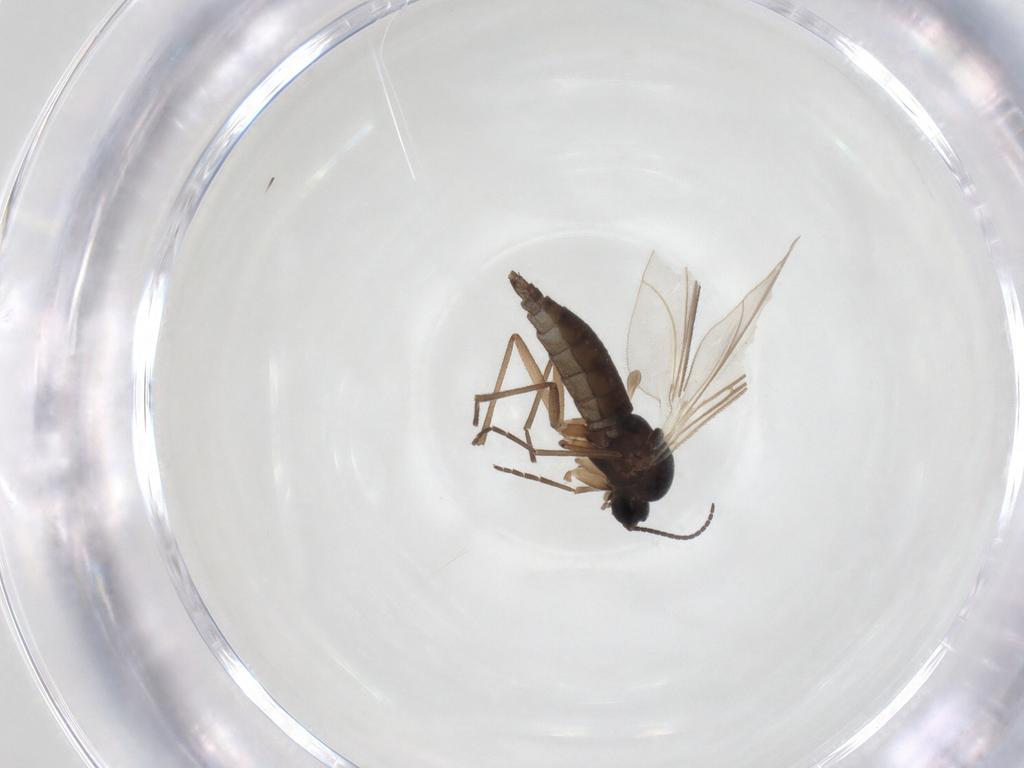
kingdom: Animalia
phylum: Arthropoda
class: Insecta
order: Diptera
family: Sciaridae
